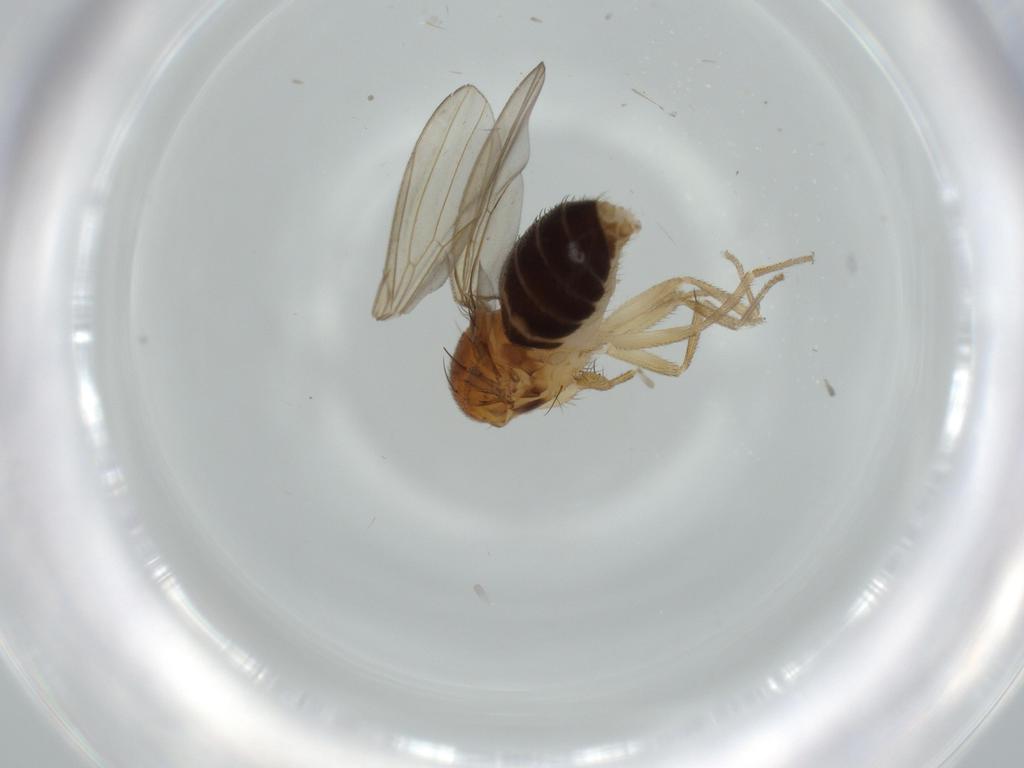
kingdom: Animalia
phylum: Arthropoda
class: Insecta
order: Diptera
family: Drosophilidae
